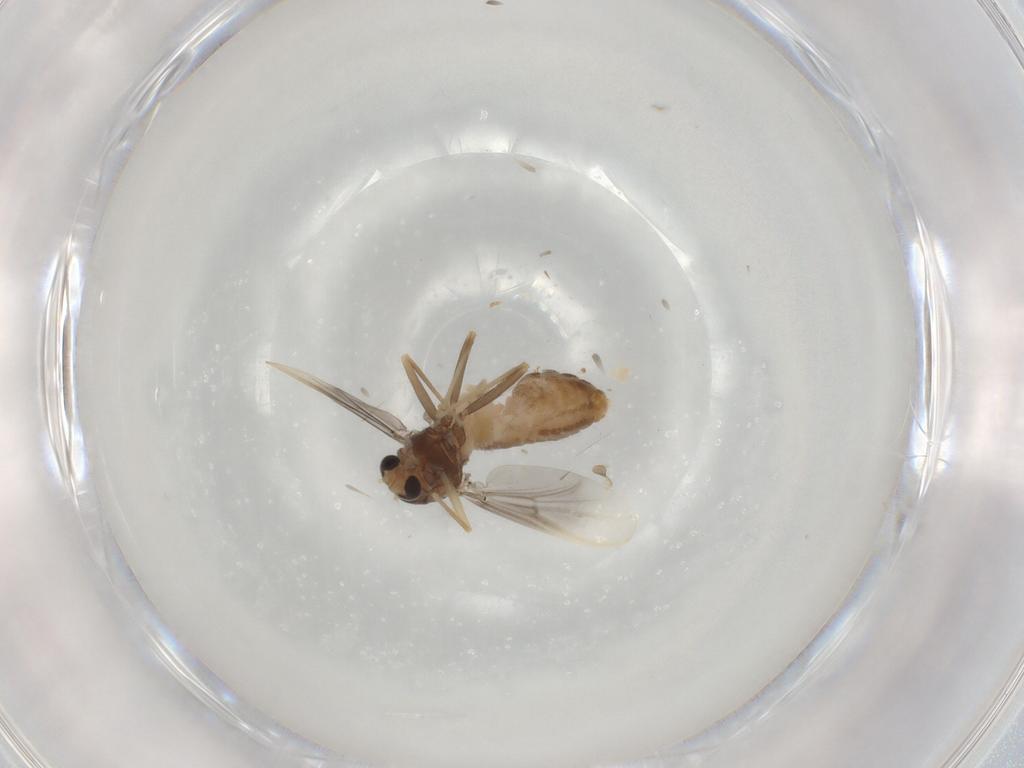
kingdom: Animalia
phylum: Arthropoda
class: Insecta
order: Diptera
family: Chironomidae
